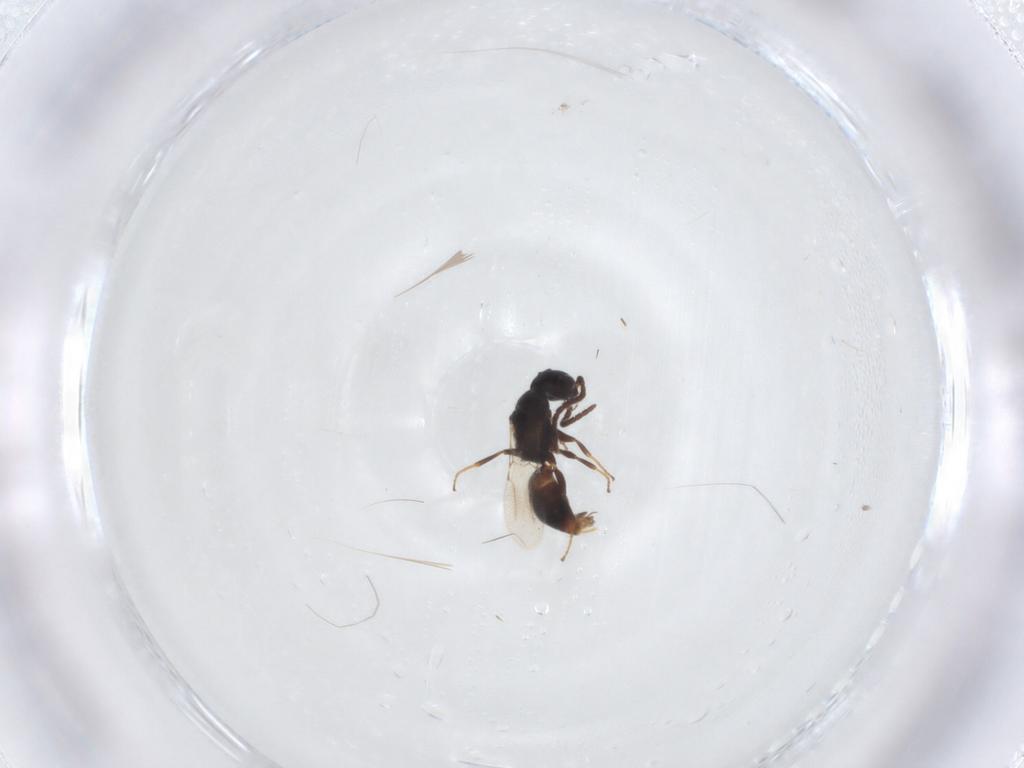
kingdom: Animalia
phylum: Arthropoda
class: Insecta
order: Hymenoptera
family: Bethylidae
